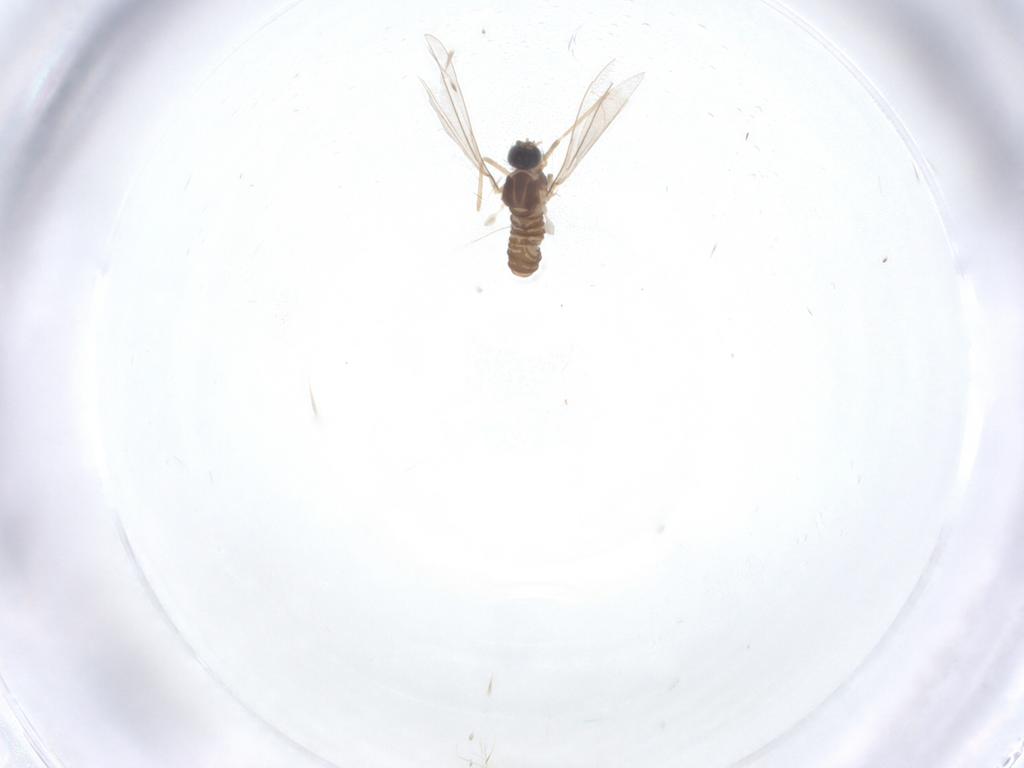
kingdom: Animalia
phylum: Arthropoda
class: Insecta
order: Diptera
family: Cecidomyiidae
